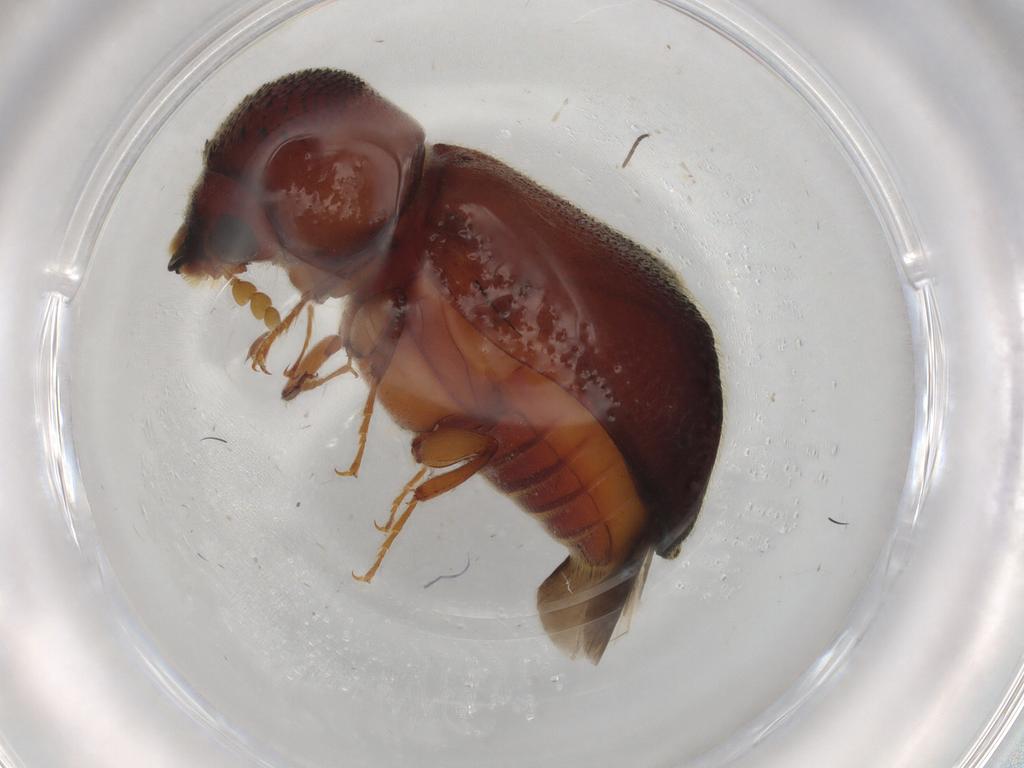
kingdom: Animalia
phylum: Arthropoda
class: Insecta
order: Coleoptera
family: Bostrichidae
